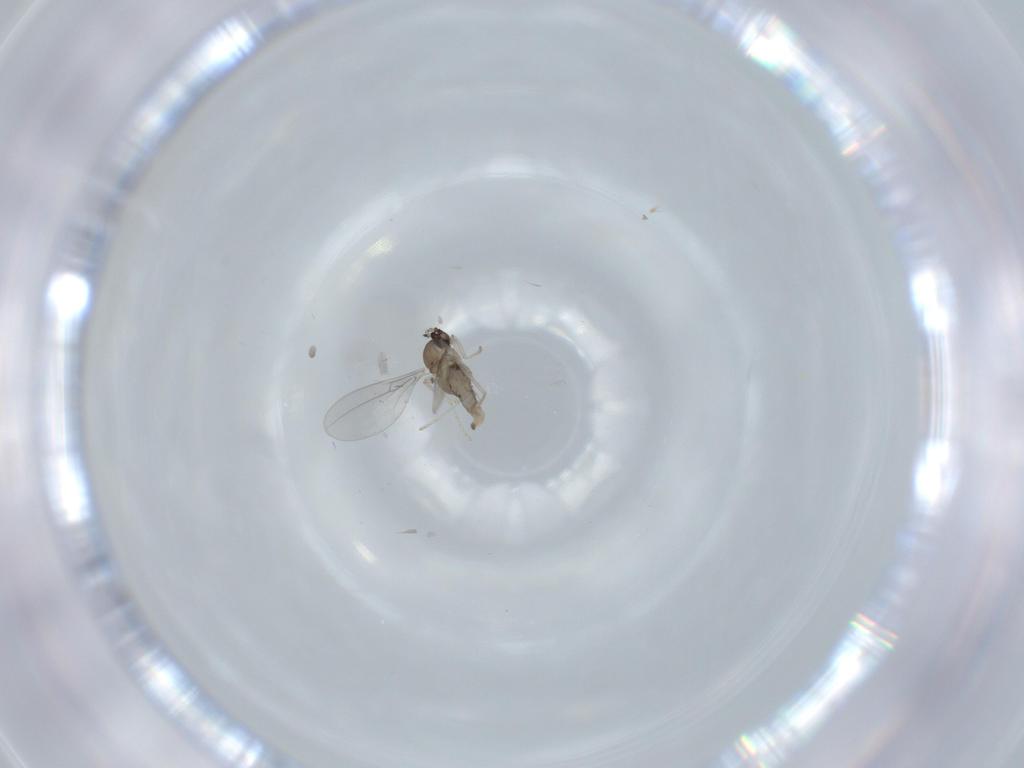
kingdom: Animalia
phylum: Arthropoda
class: Insecta
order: Diptera
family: Cecidomyiidae
